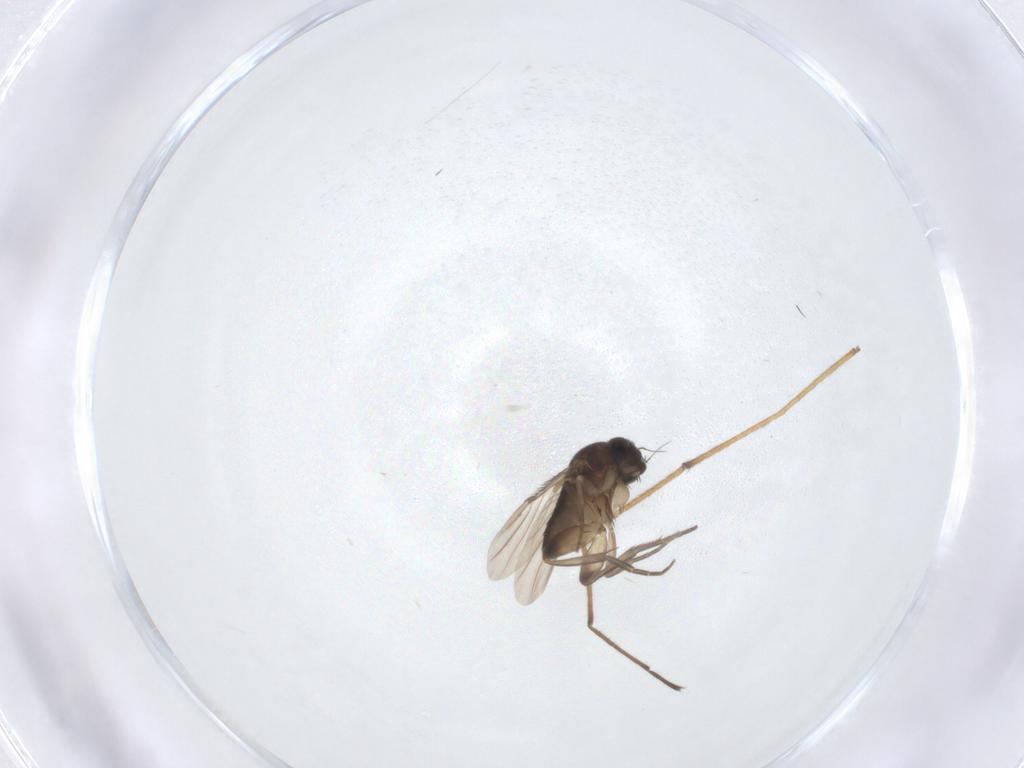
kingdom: Animalia
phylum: Arthropoda
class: Insecta
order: Diptera
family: Phoridae
